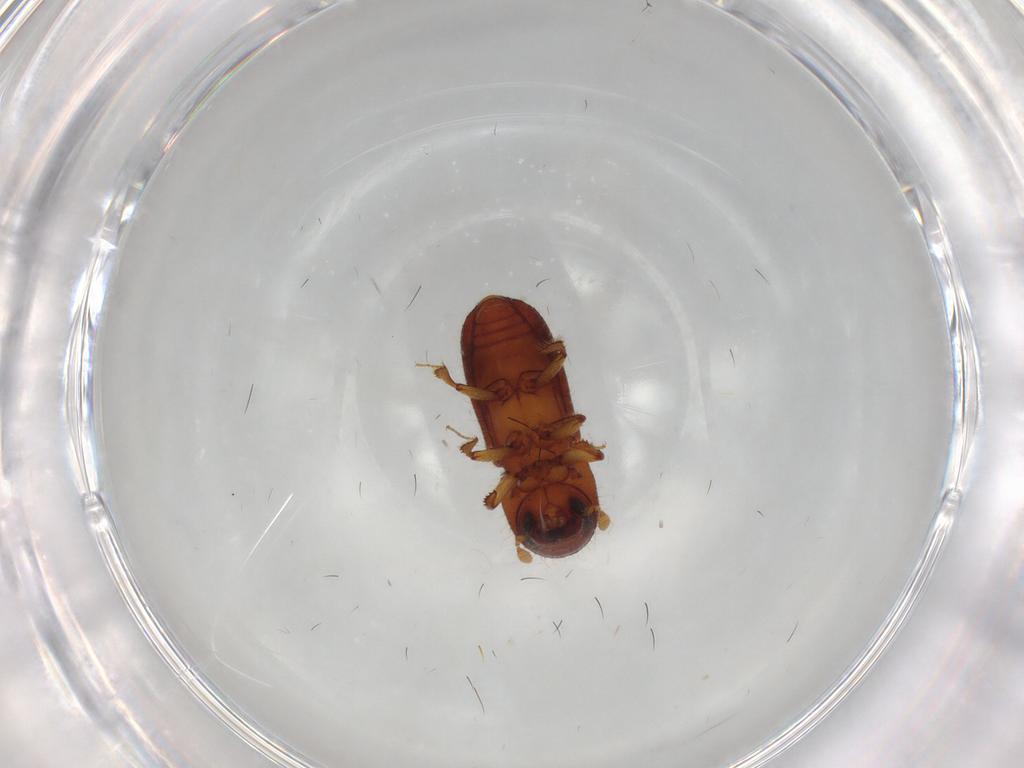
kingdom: Animalia
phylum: Arthropoda
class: Insecta
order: Coleoptera
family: Curculionidae
